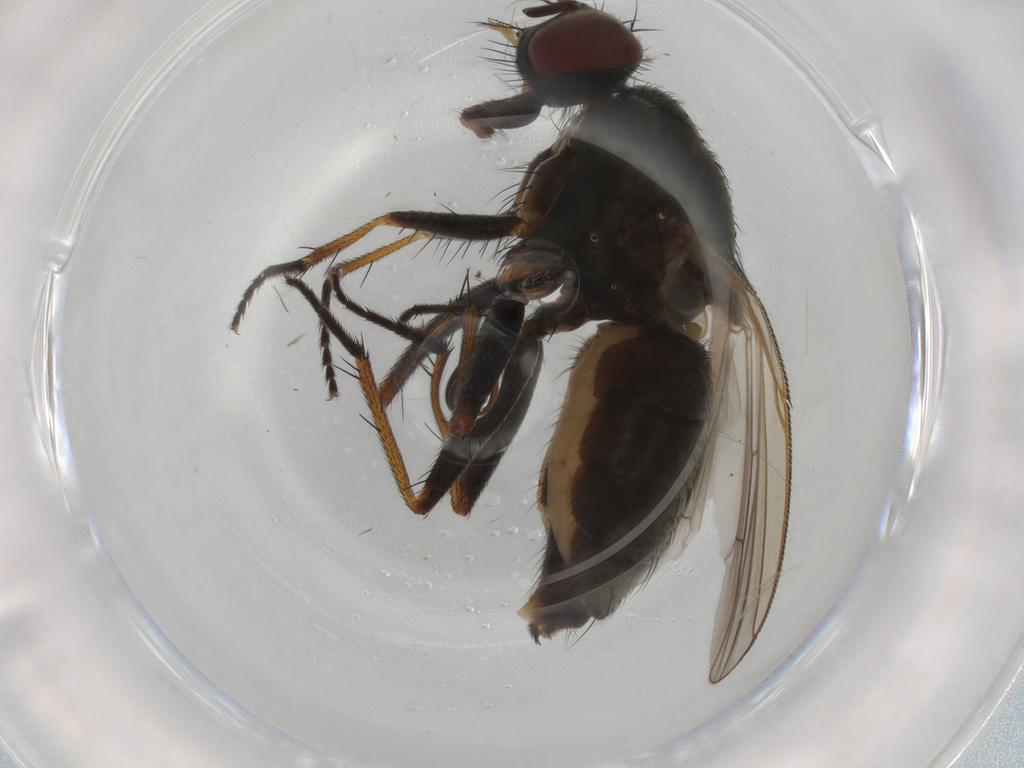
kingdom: Animalia
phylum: Arthropoda
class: Insecta
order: Diptera
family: Muscidae
